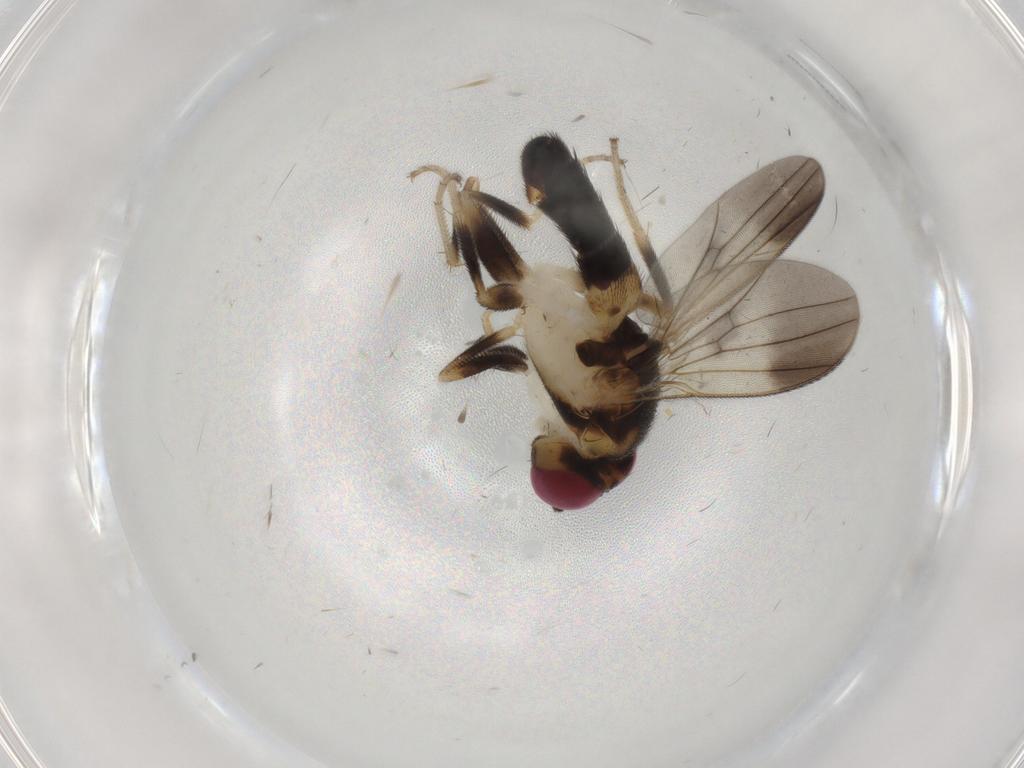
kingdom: Animalia
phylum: Arthropoda
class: Insecta
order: Diptera
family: Clusiidae
